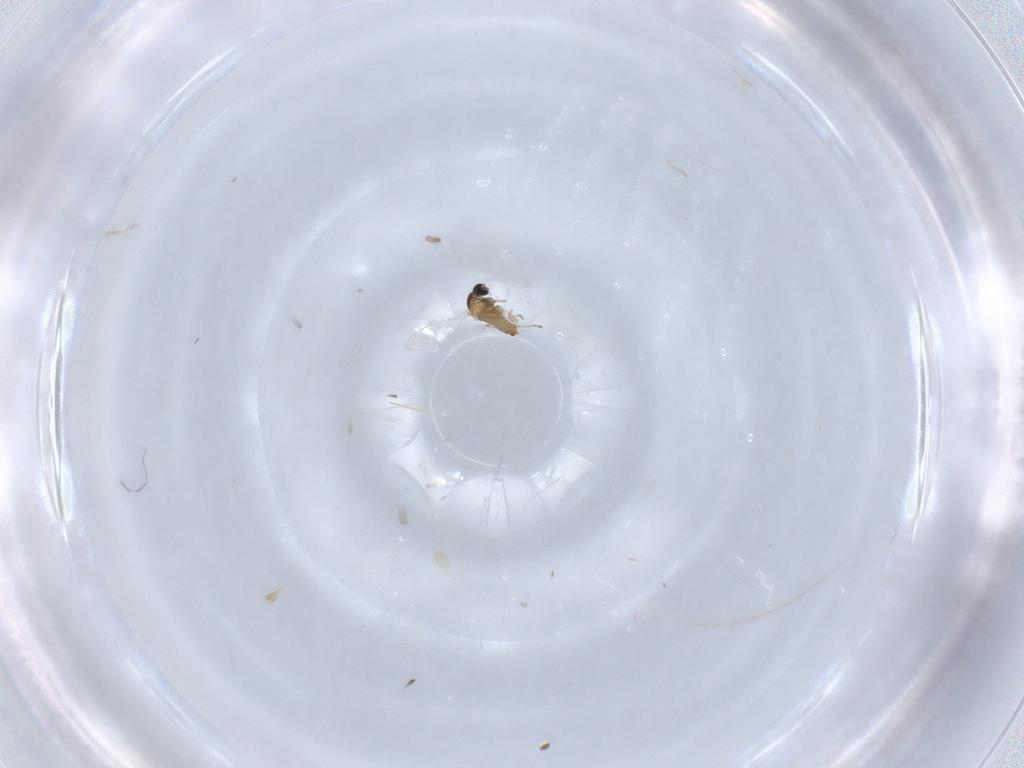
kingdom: Animalia
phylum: Arthropoda
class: Insecta
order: Diptera
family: Cecidomyiidae
